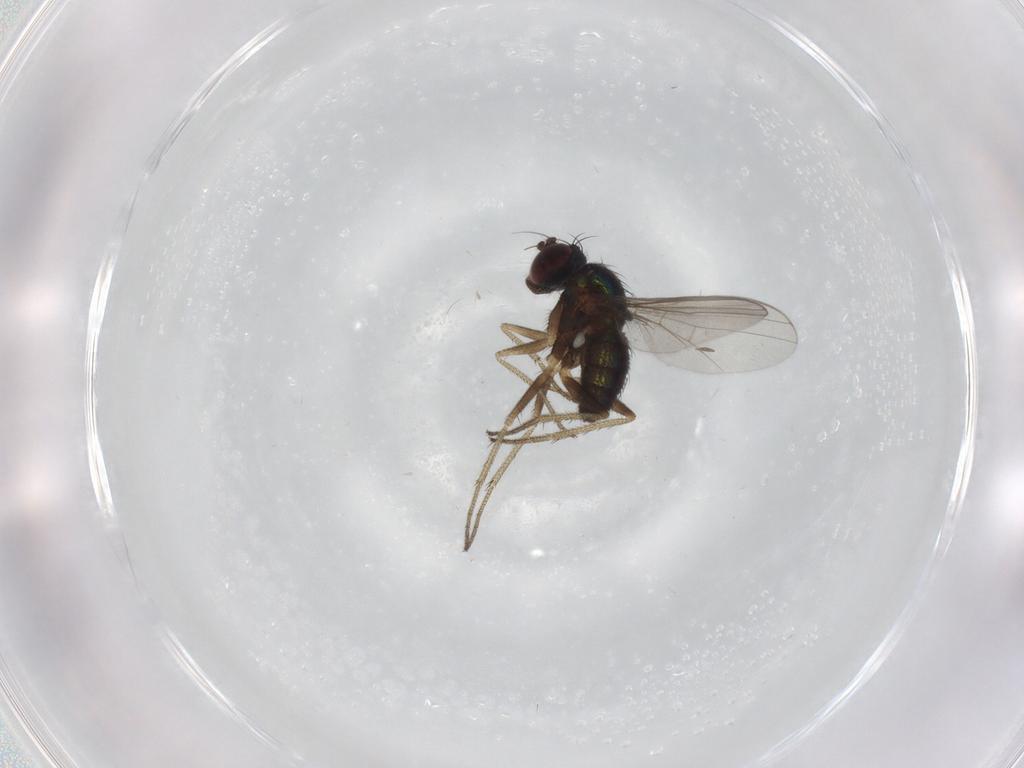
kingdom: Animalia
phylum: Arthropoda
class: Insecta
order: Diptera
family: Dolichopodidae
